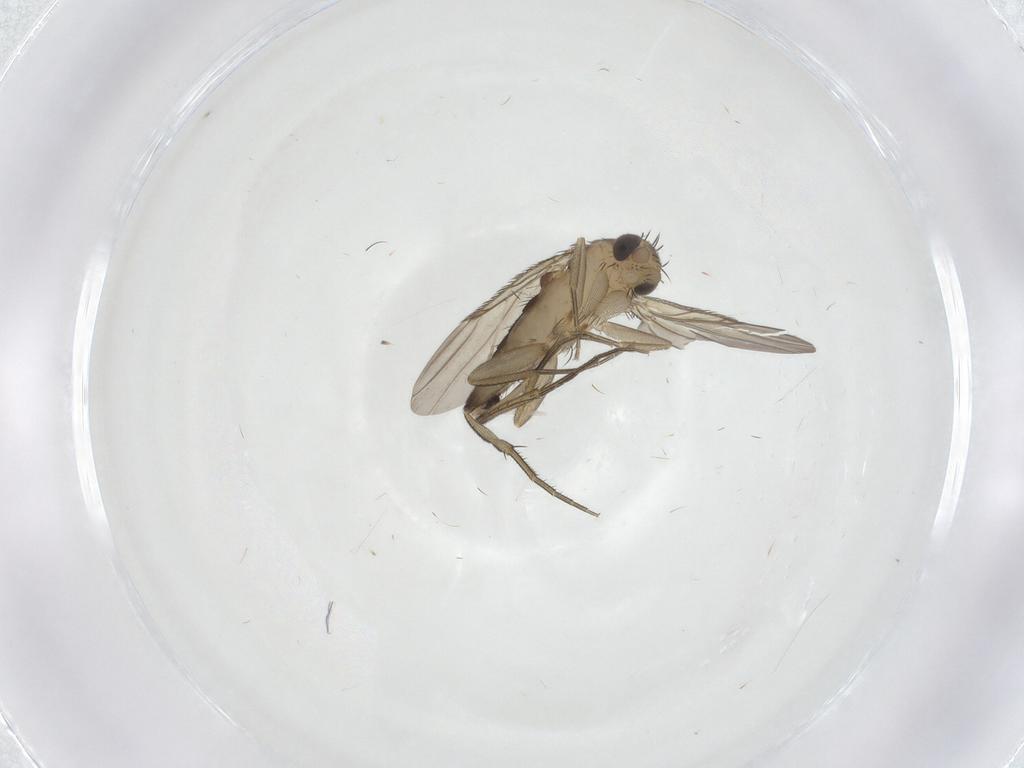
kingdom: Animalia
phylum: Arthropoda
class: Insecta
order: Diptera
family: Phoridae
